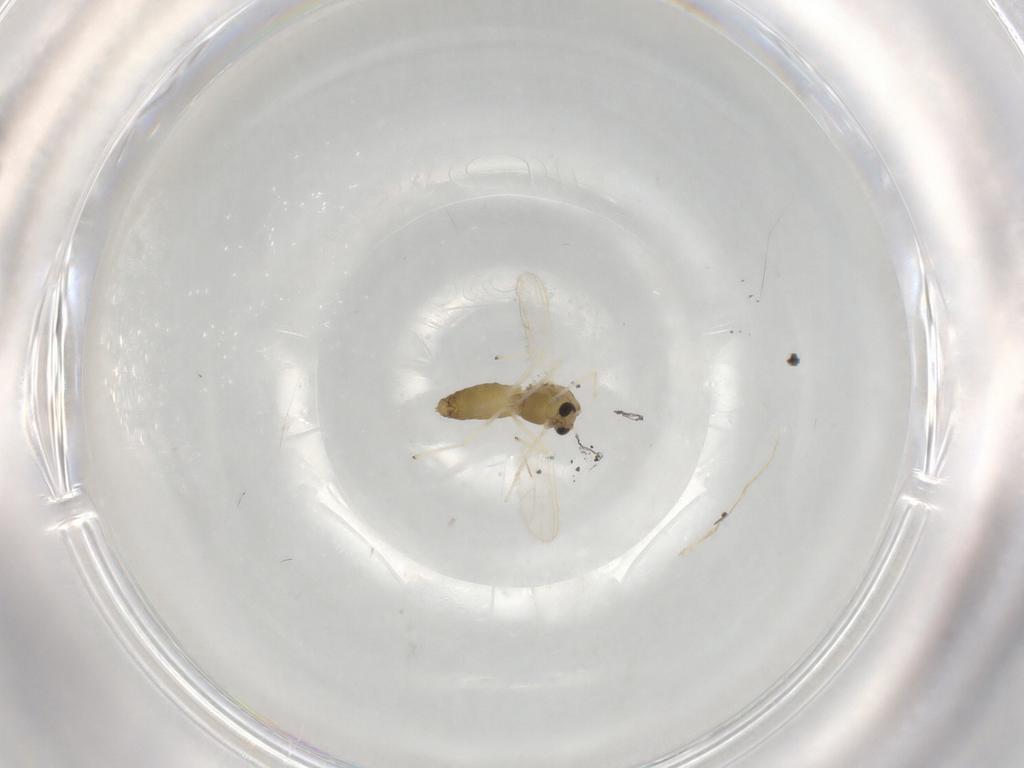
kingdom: Animalia
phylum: Arthropoda
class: Insecta
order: Diptera
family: Chironomidae
